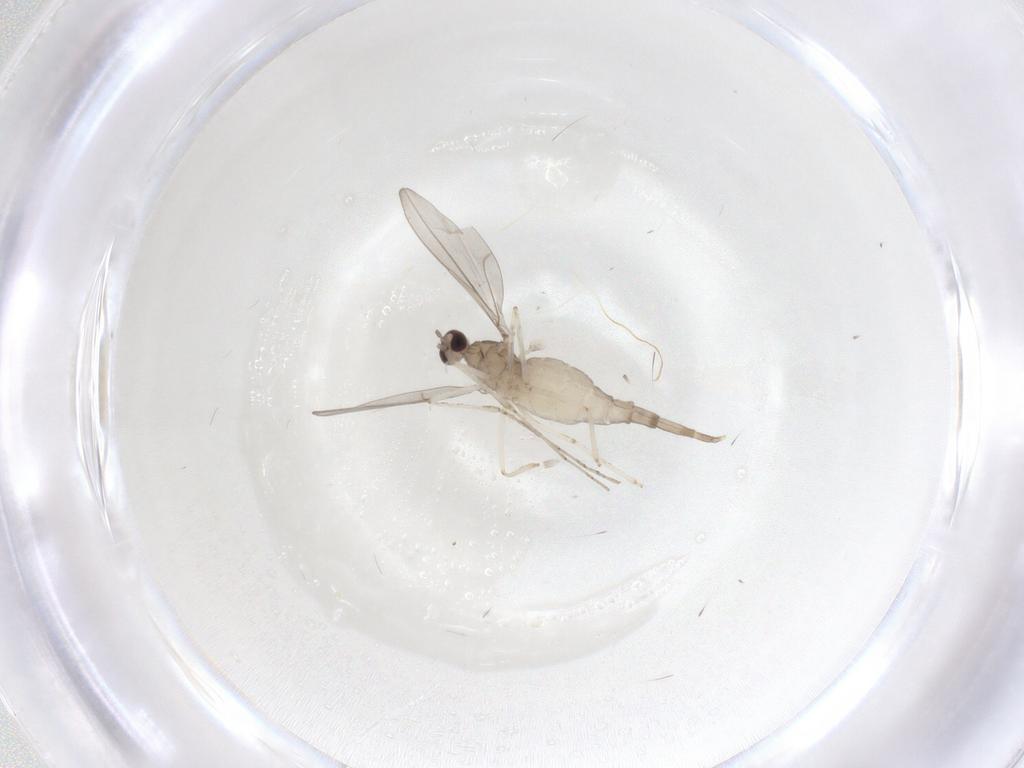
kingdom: Animalia
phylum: Arthropoda
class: Insecta
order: Diptera
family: Cecidomyiidae
